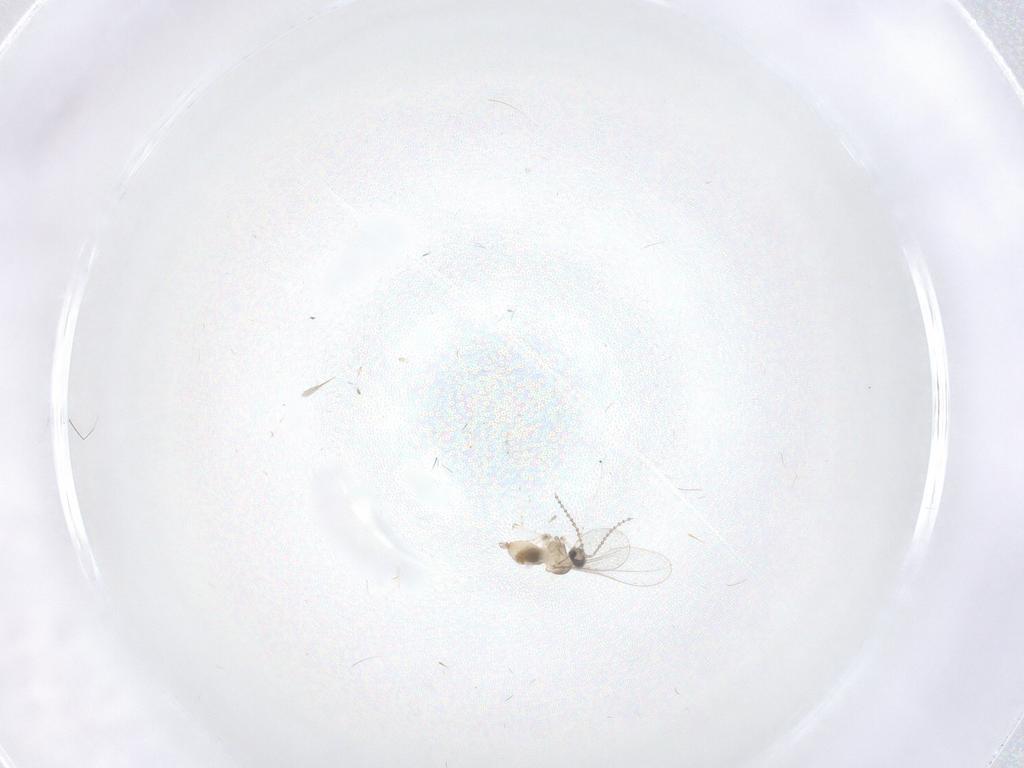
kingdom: Animalia
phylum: Arthropoda
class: Insecta
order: Diptera
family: Cecidomyiidae
